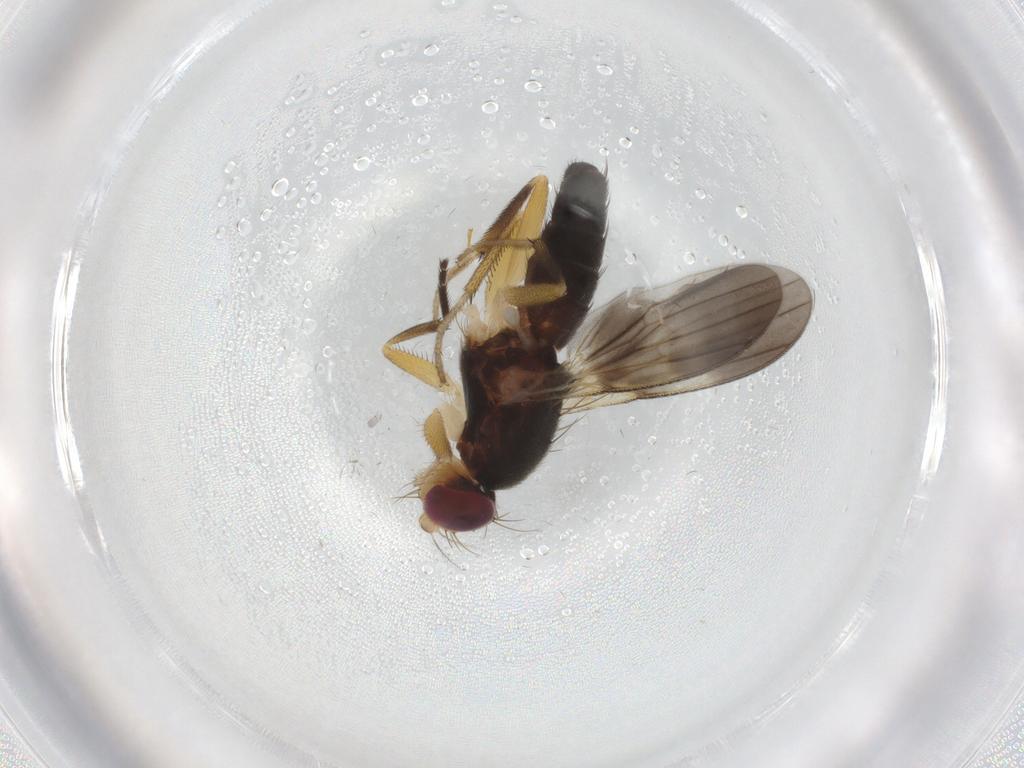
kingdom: Animalia
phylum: Arthropoda
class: Insecta
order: Diptera
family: Clusiidae
